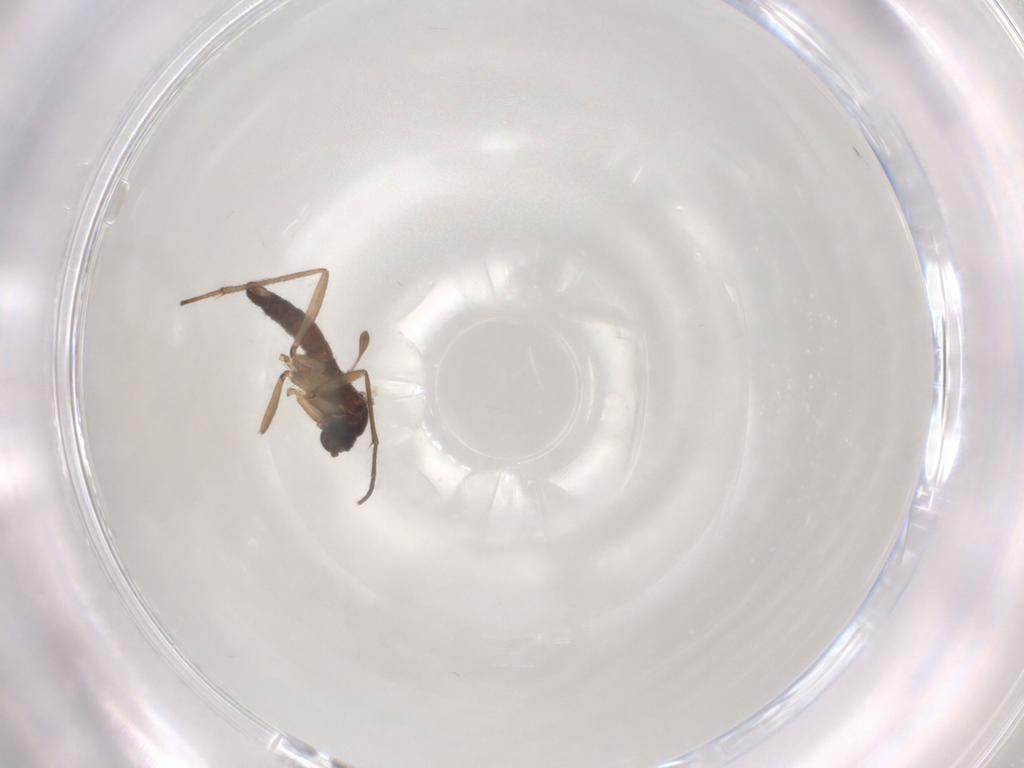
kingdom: Animalia
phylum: Arthropoda
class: Insecta
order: Diptera
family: Sciaridae
